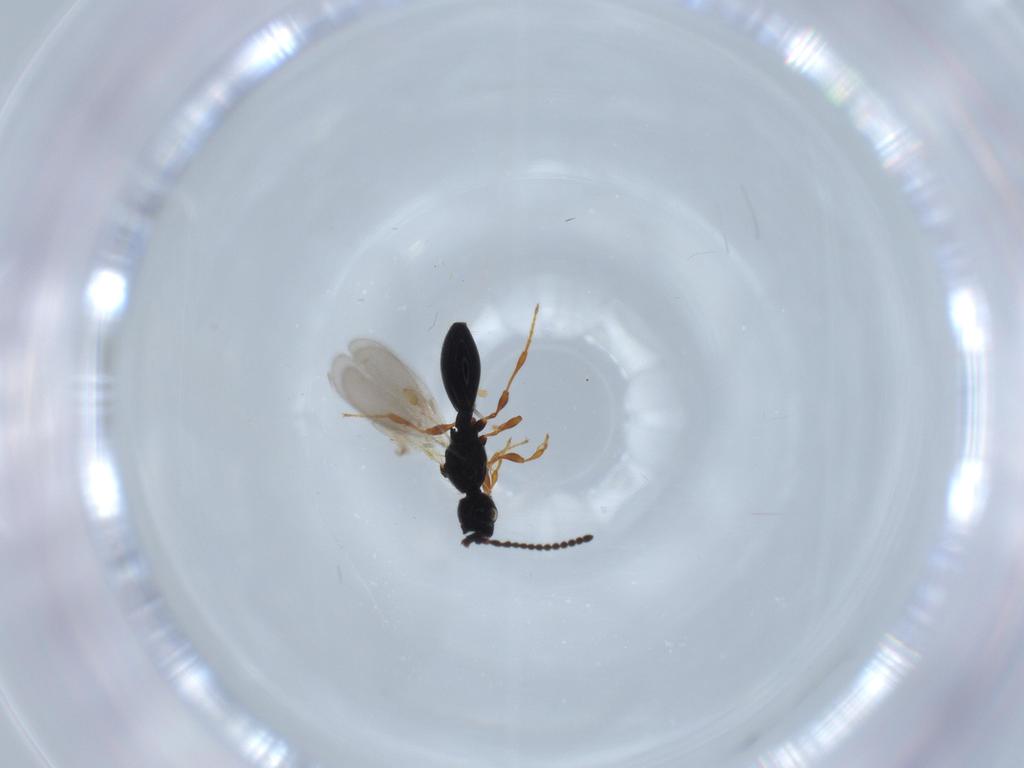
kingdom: Animalia
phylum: Arthropoda
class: Insecta
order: Hymenoptera
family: Diapriidae
